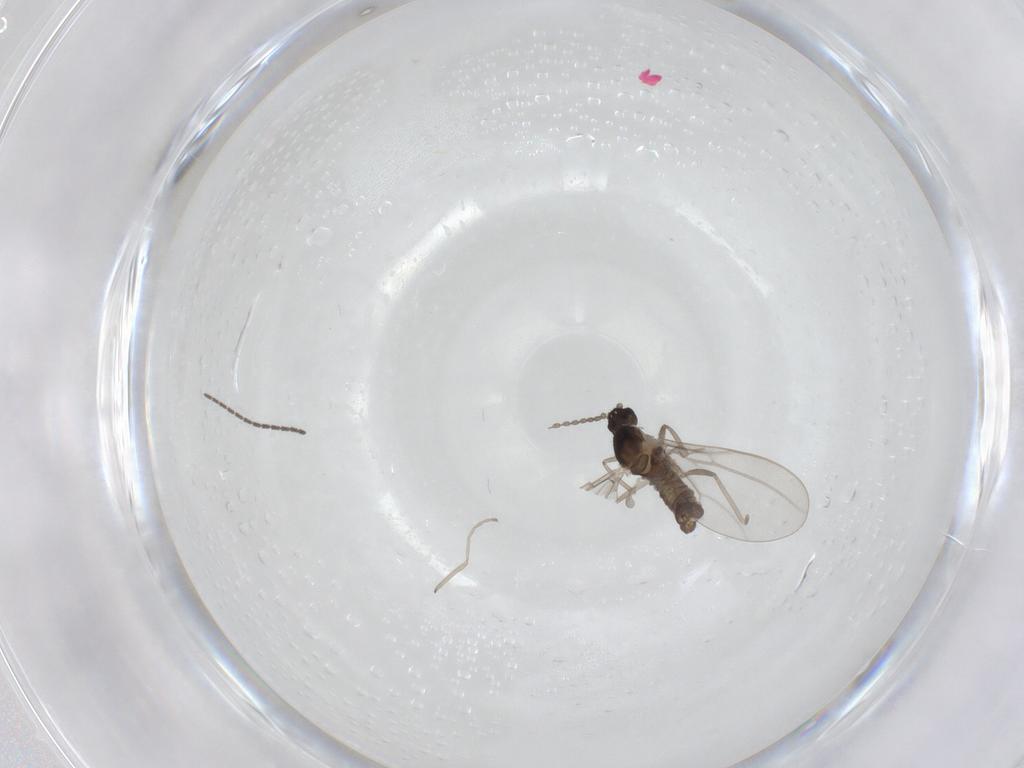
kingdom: Animalia
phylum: Arthropoda
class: Insecta
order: Diptera
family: Cecidomyiidae
